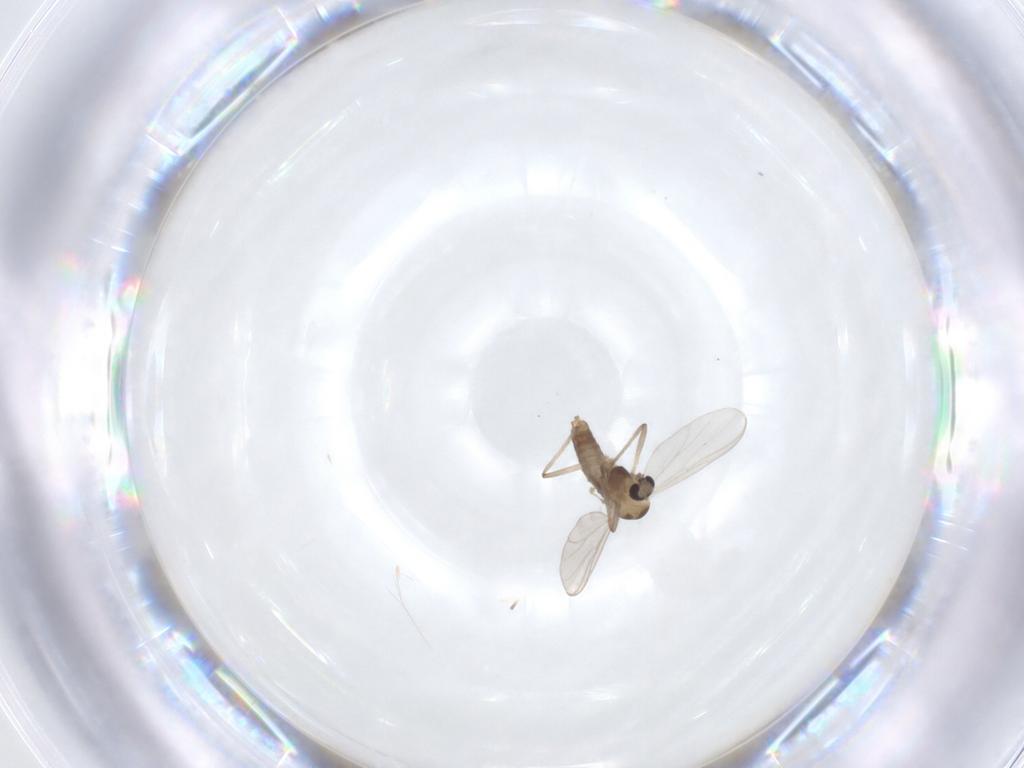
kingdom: Animalia
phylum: Arthropoda
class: Insecta
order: Diptera
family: Chironomidae
